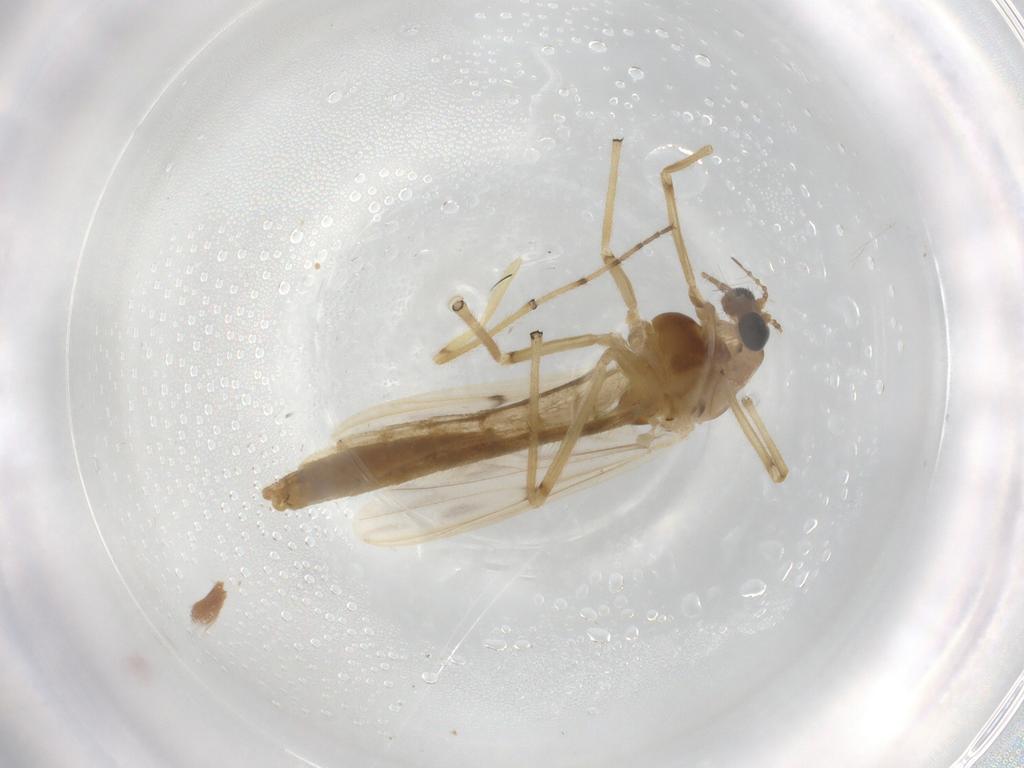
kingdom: Animalia
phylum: Arthropoda
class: Insecta
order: Diptera
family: Chironomidae
